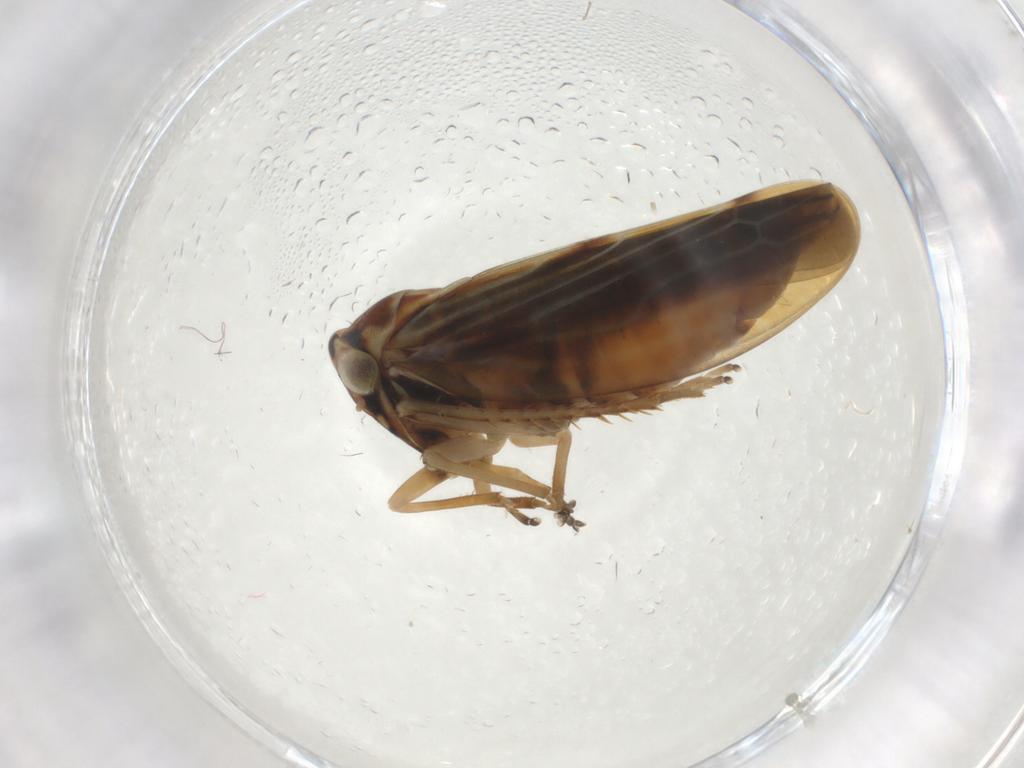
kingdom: Animalia
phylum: Arthropoda
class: Insecta
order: Hemiptera
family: Cicadellidae
